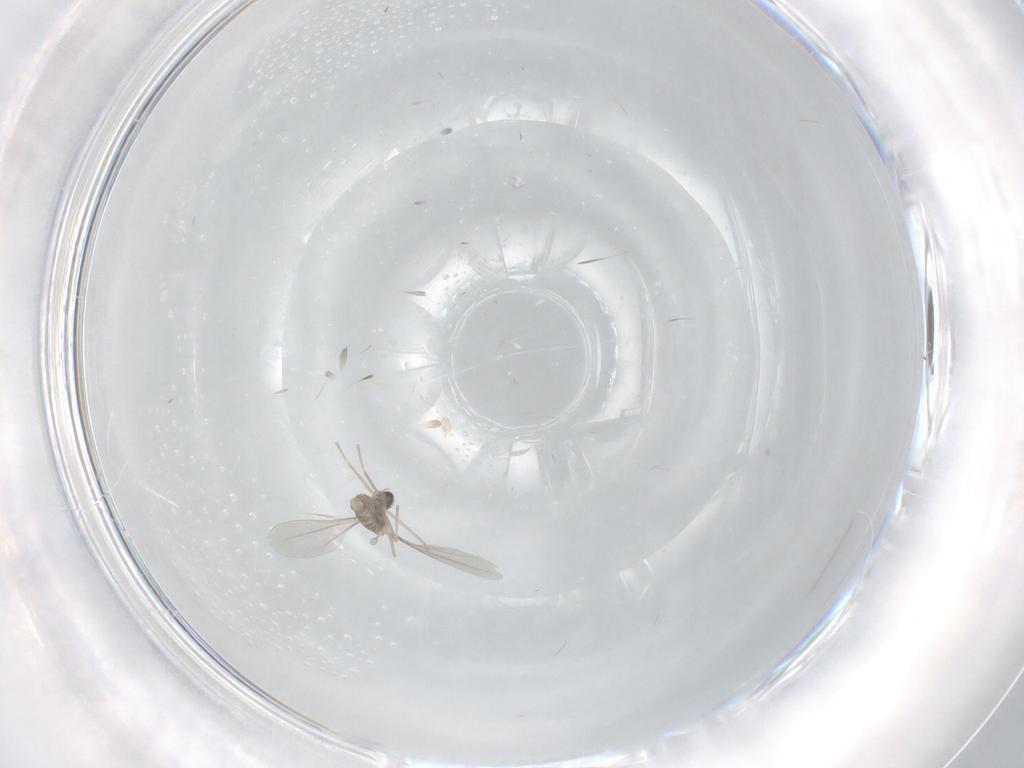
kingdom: Animalia
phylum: Arthropoda
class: Insecta
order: Diptera
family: Cecidomyiidae
